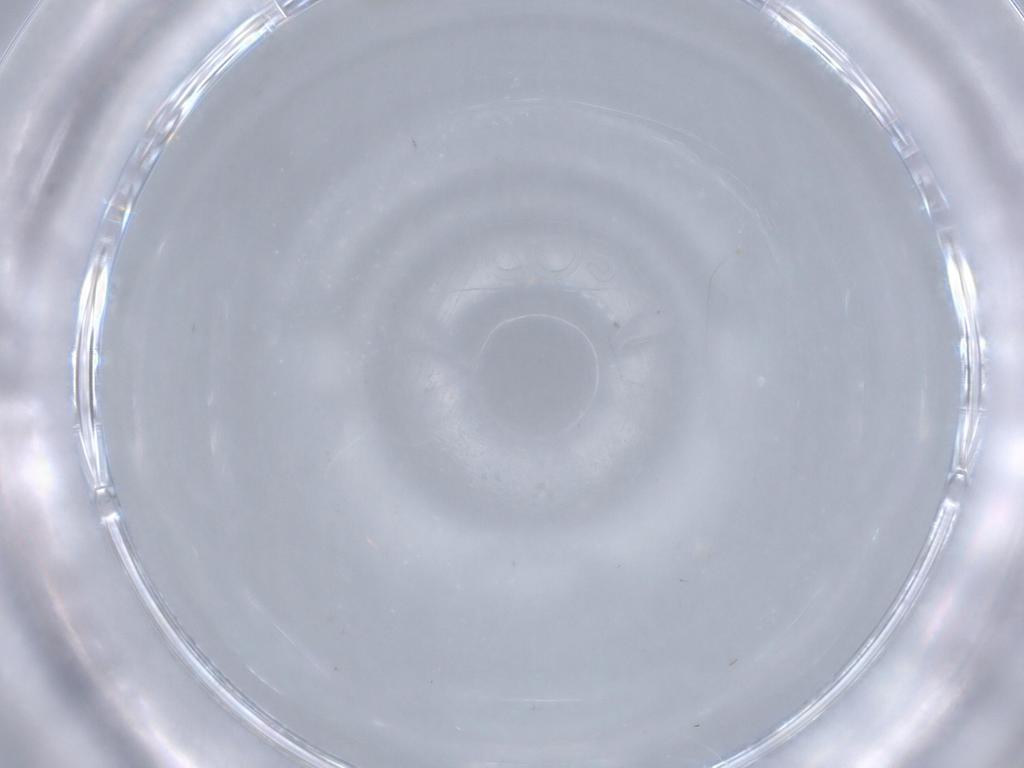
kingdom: Animalia
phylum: Arthropoda
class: Insecta
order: Diptera
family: Cecidomyiidae
